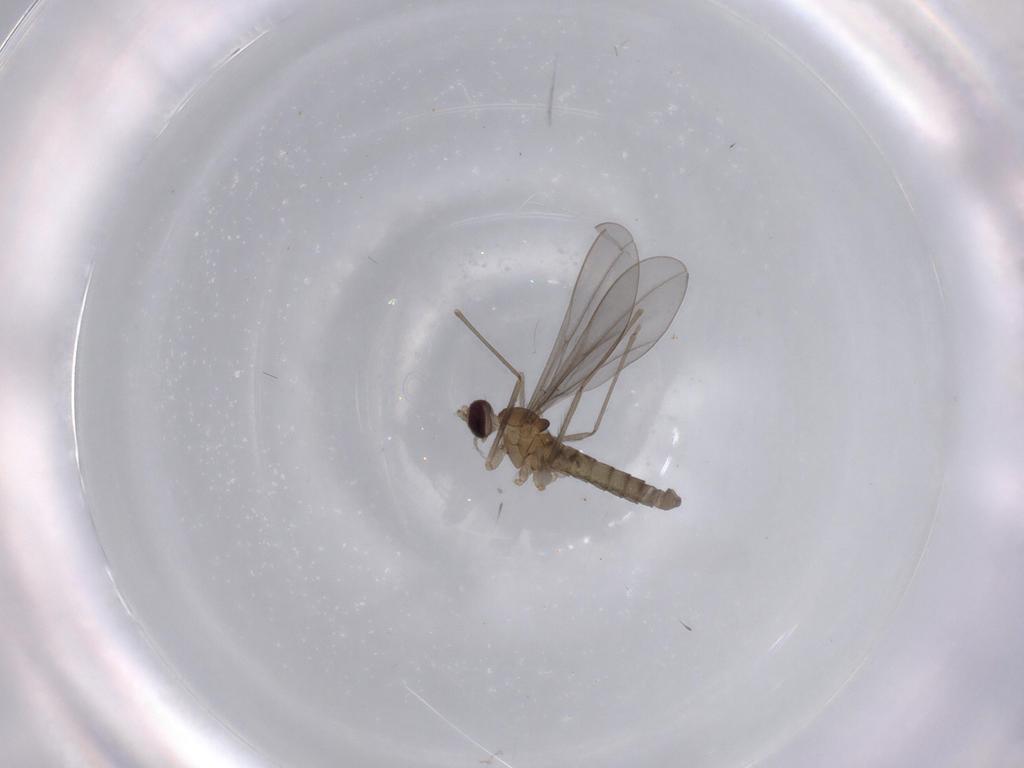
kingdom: Animalia
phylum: Arthropoda
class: Insecta
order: Diptera
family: Cecidomyiidae
